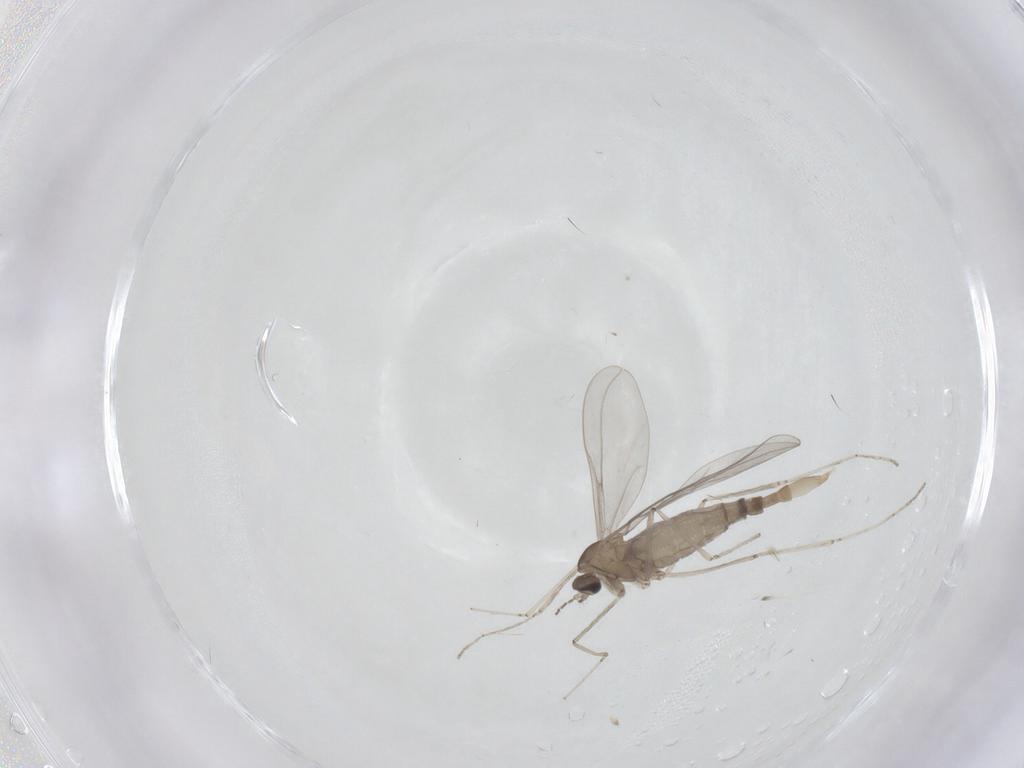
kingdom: Animalia
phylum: Arthropoda
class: Insecta
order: Diptera
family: Cecidomyiidae
